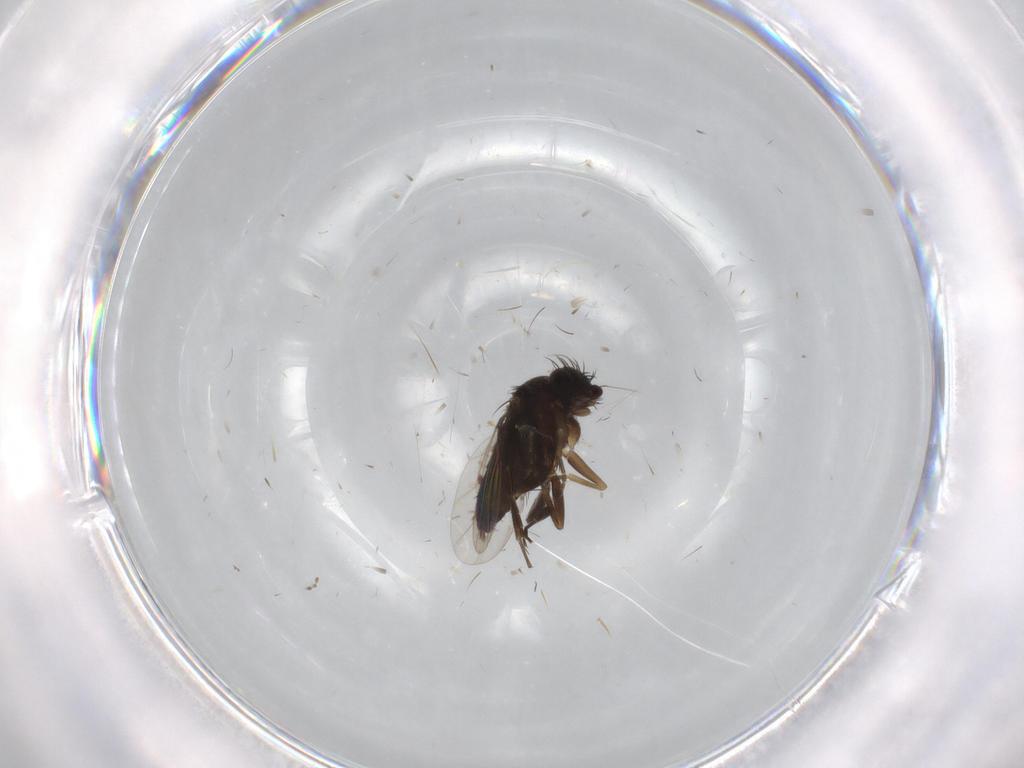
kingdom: Animalia
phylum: Arthropoda
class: Insecta
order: Diptera
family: Phoridae
